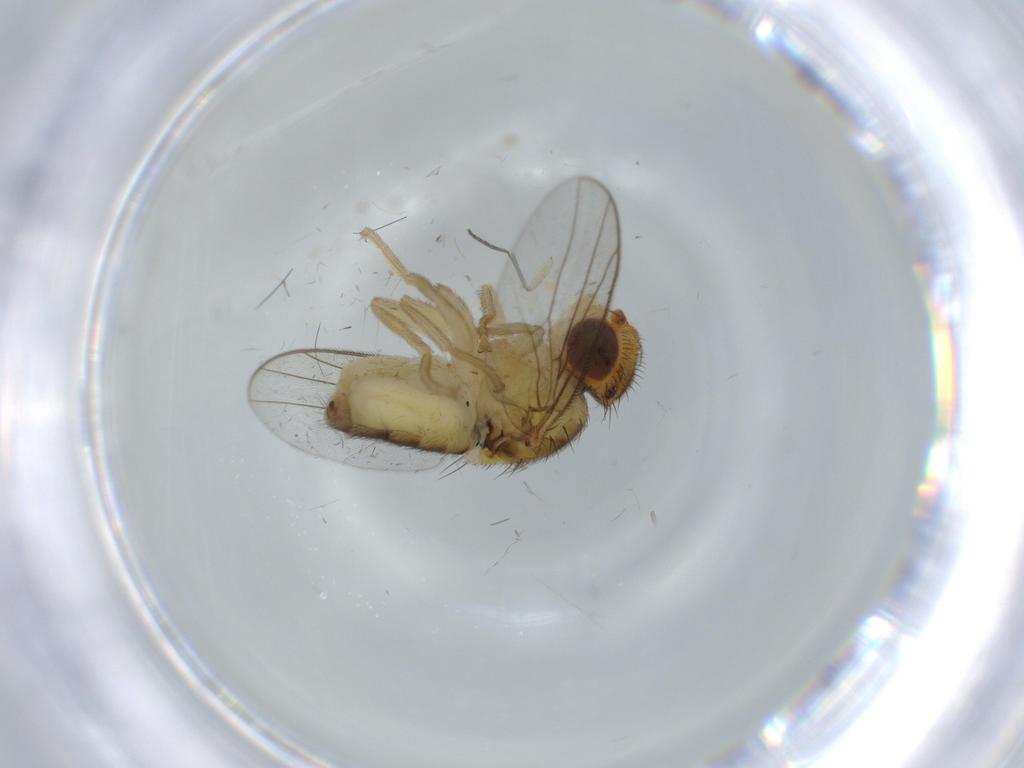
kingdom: Animalia
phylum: Arthropoda
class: Insecta
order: Diptera
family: Chloropidae
